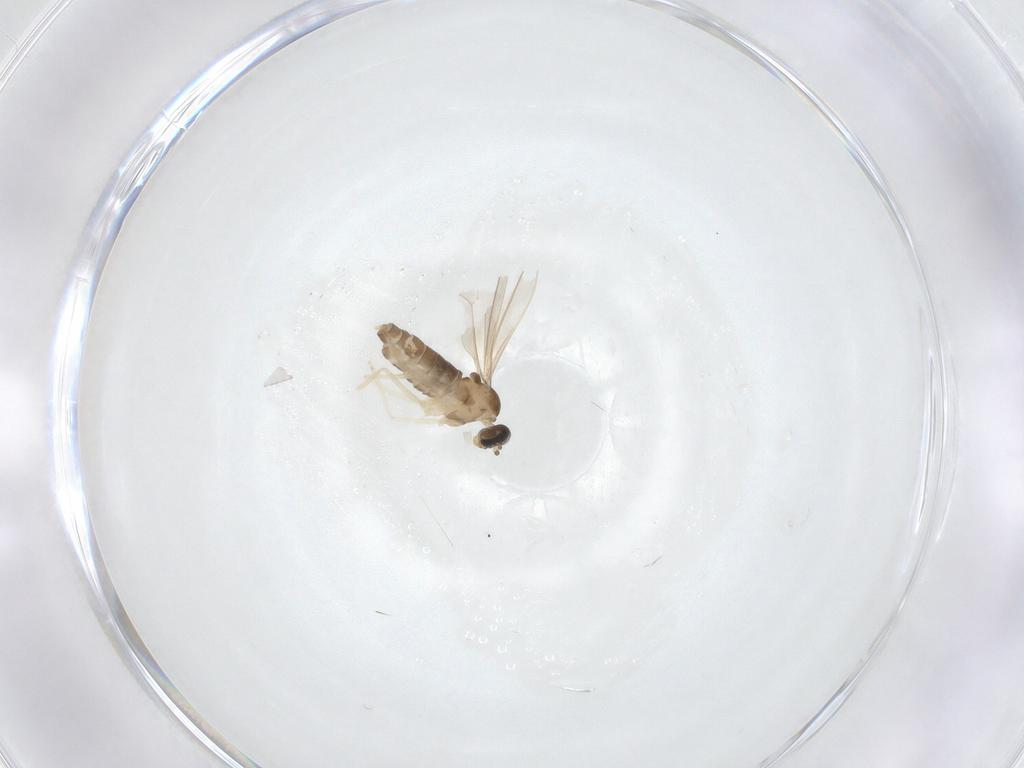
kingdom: Animalia
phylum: Arthropoda
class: Insecta
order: Diptera
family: Cecidomyiidae
